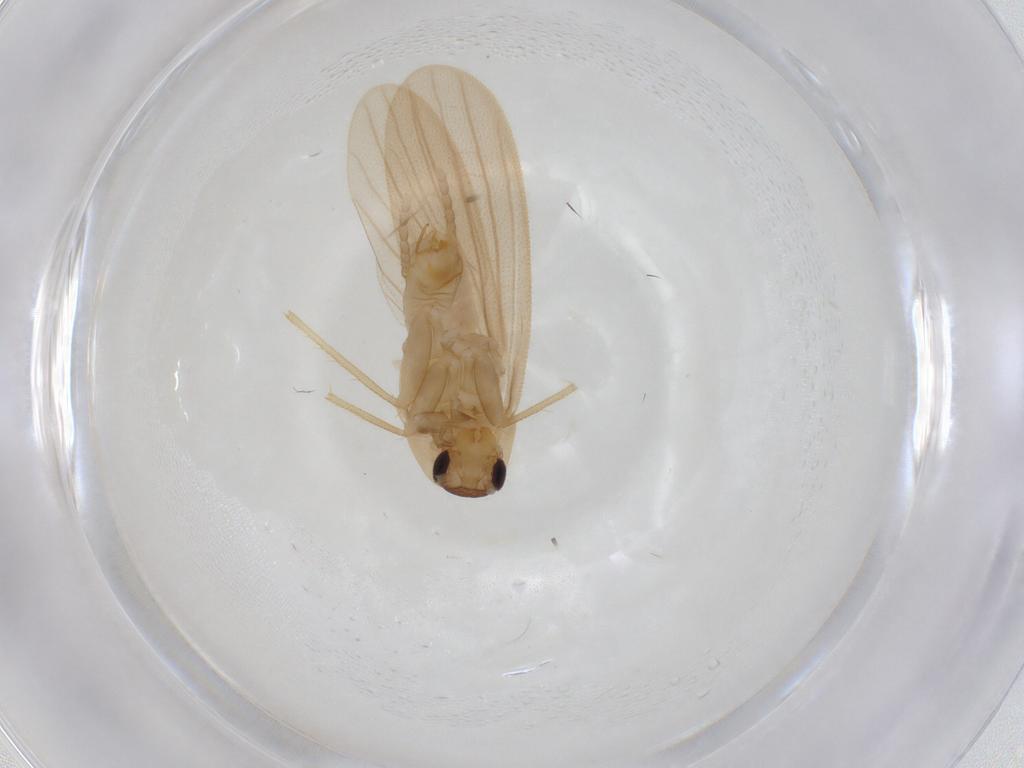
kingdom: Animalia
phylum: Arthropoda
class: Insecta
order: Blattodea
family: Nocticolidae
